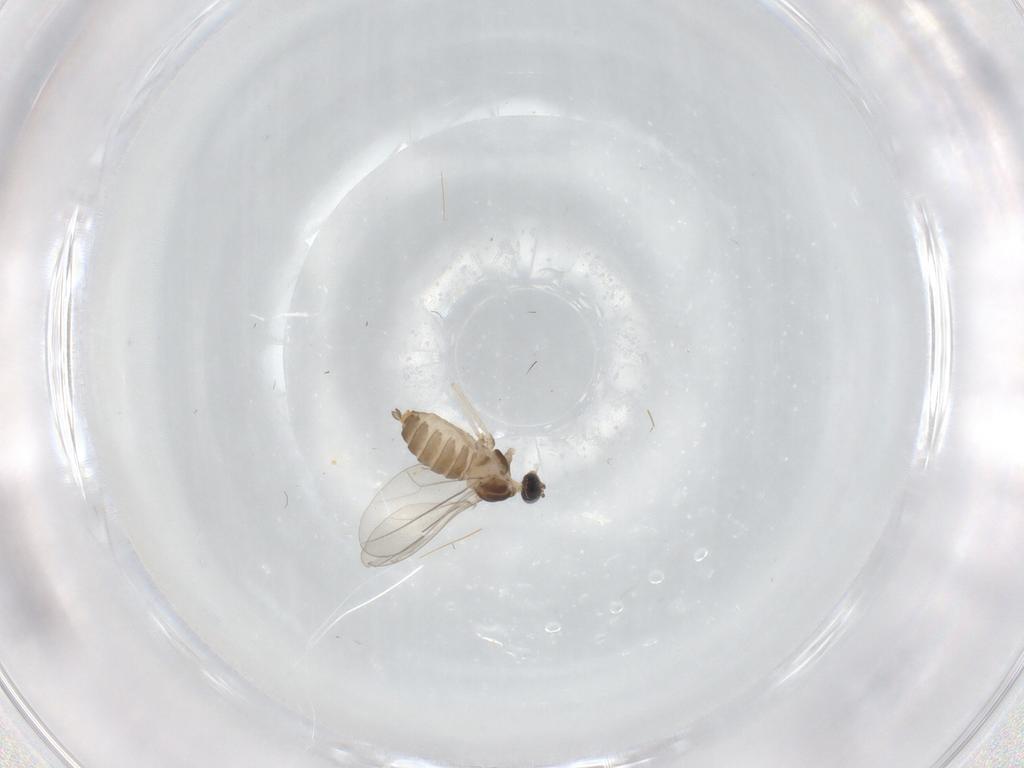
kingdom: Animalia
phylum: Arthropoda
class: Insecta
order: Diptera
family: Cecidomyiidae
